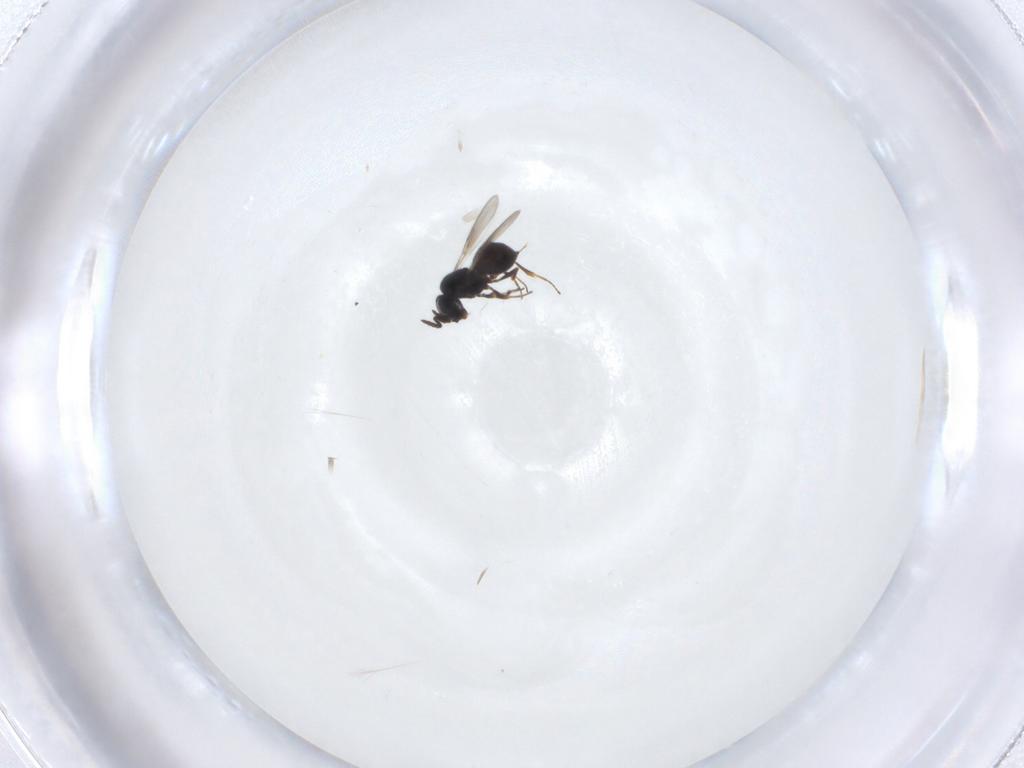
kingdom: Animalia
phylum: Arthropoda
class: Insecta
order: Hymenoptera
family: Scelionidae
